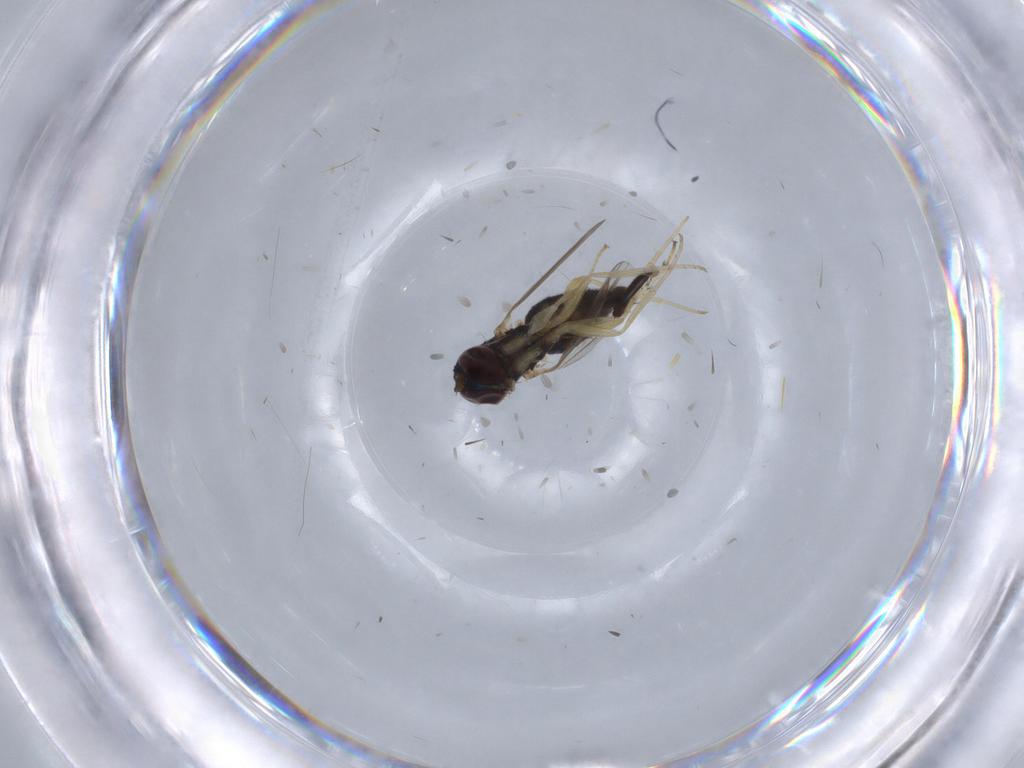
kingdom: Animalia
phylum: Arthropoda
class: Insecta
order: Diptera
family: Dolichopodidae
